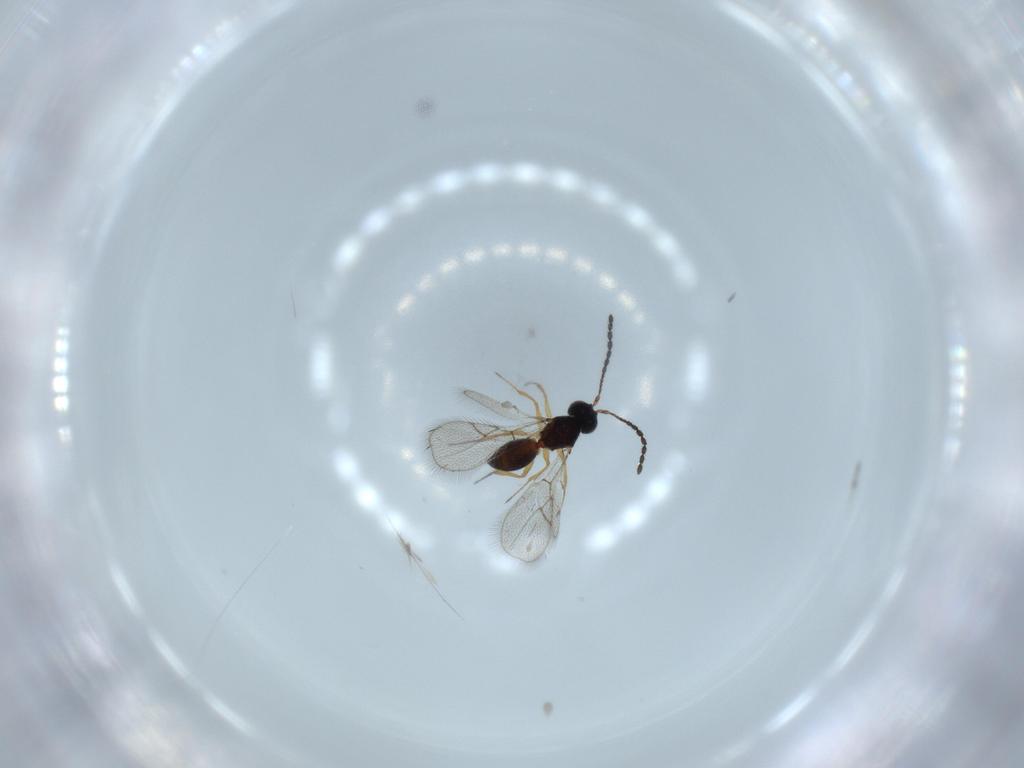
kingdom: Animalia
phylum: Arthropoda
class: Insecta
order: Hymenoptera
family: Figitidae
